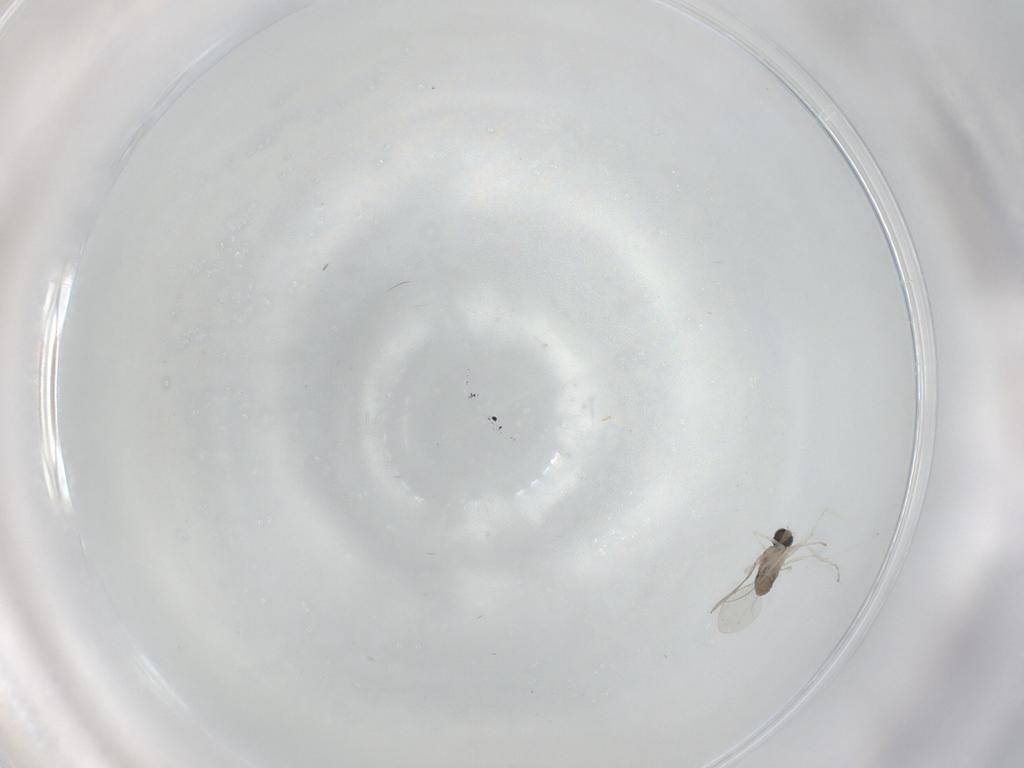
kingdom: Animalia
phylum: Arthropoda
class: Insecta
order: Diptera
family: Cecidomyiidae
